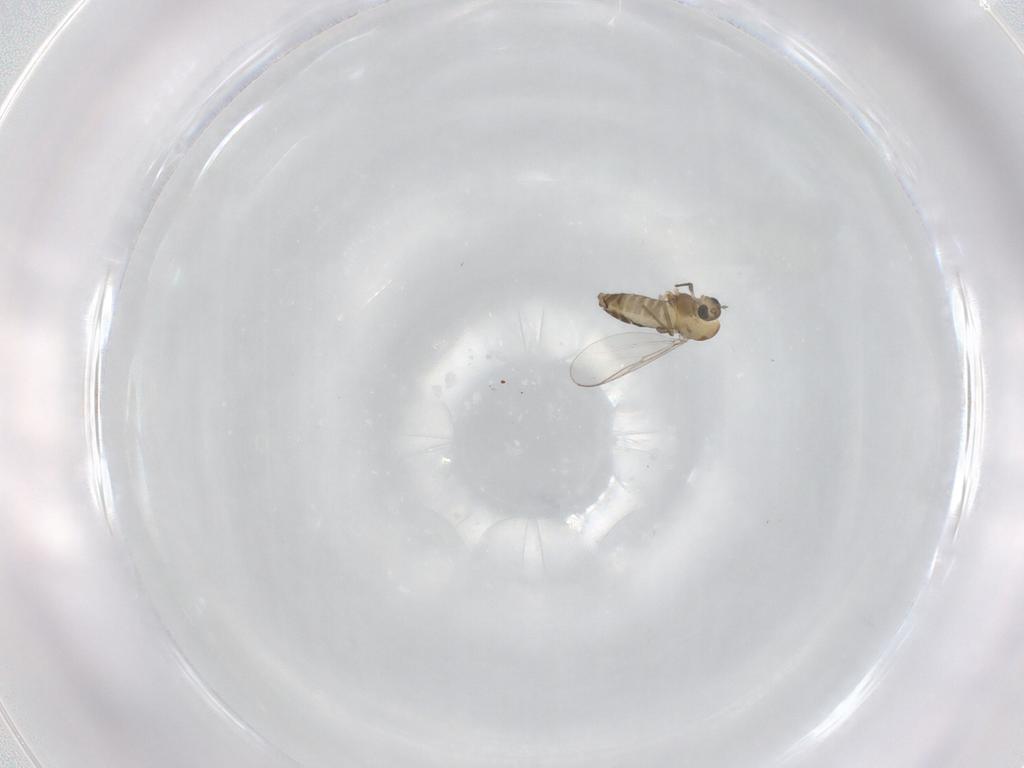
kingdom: Animalia
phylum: Arthropoda
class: Insecta
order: Diptera
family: Chironomidae
